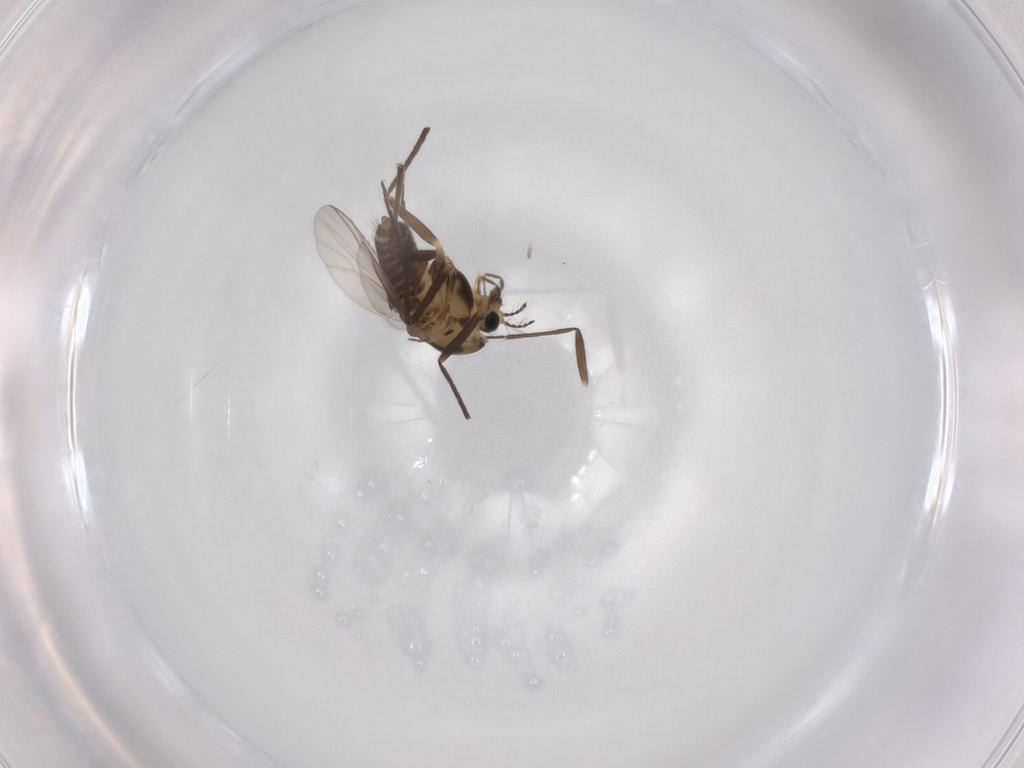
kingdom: Animalia
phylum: Arthropoda
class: Insecta
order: Diptera
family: Chironomidae
